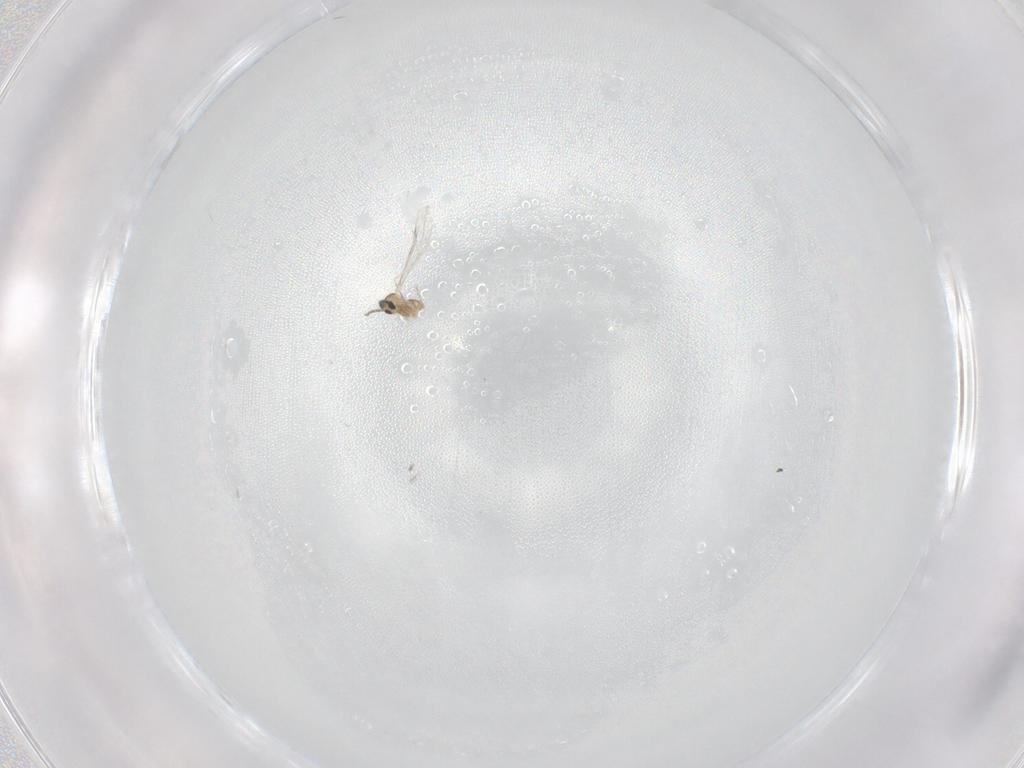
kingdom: Animalia
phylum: Arthropoda
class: Insecta
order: Diptera
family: Cecidomyiidae
